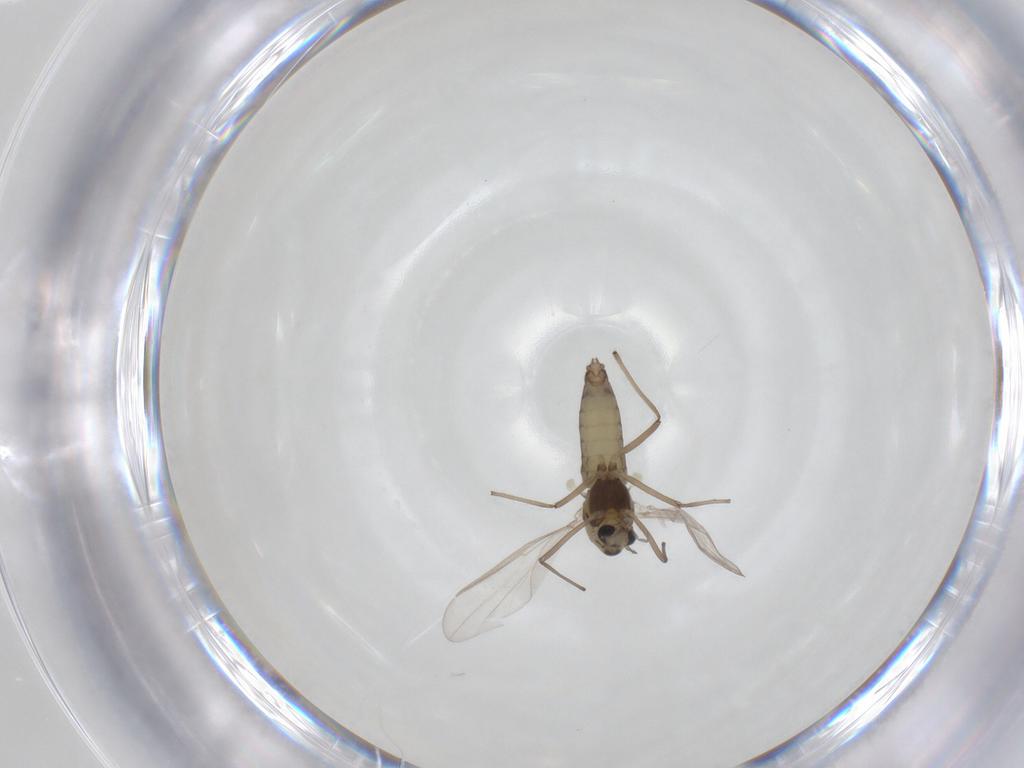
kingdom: Animalia
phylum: Arthropoda
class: Insecta
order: Diptera
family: Chironomidae
